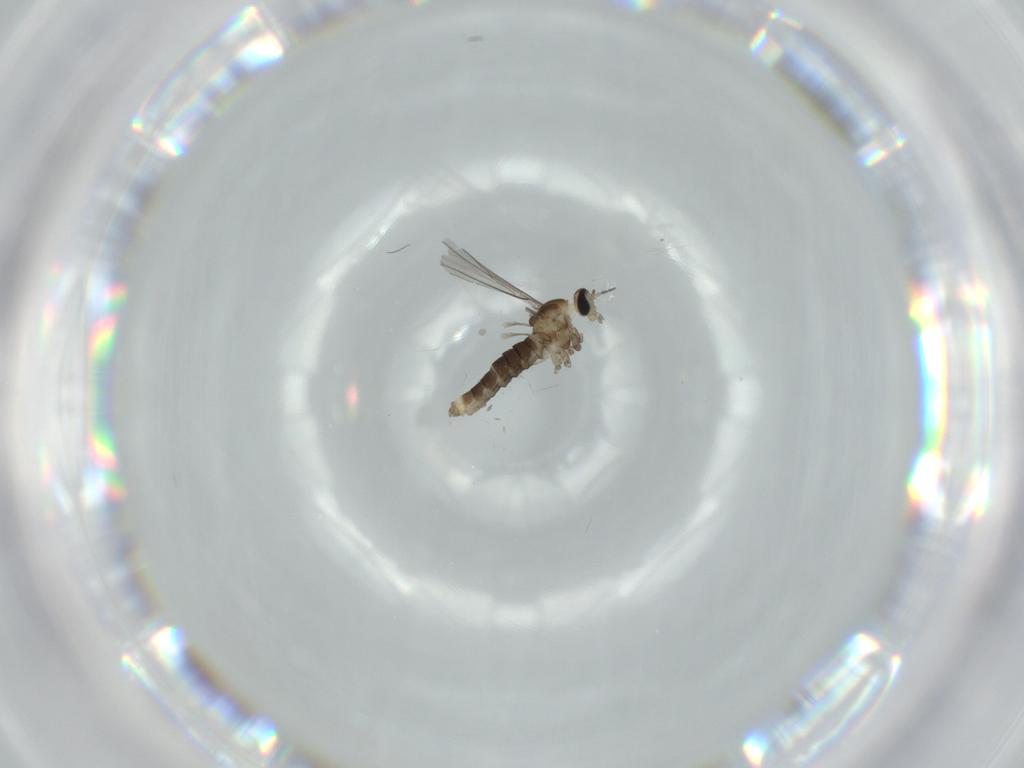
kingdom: Animalia
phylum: Arthropoda
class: Insecta
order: Diptera
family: Cecidomyiidae
